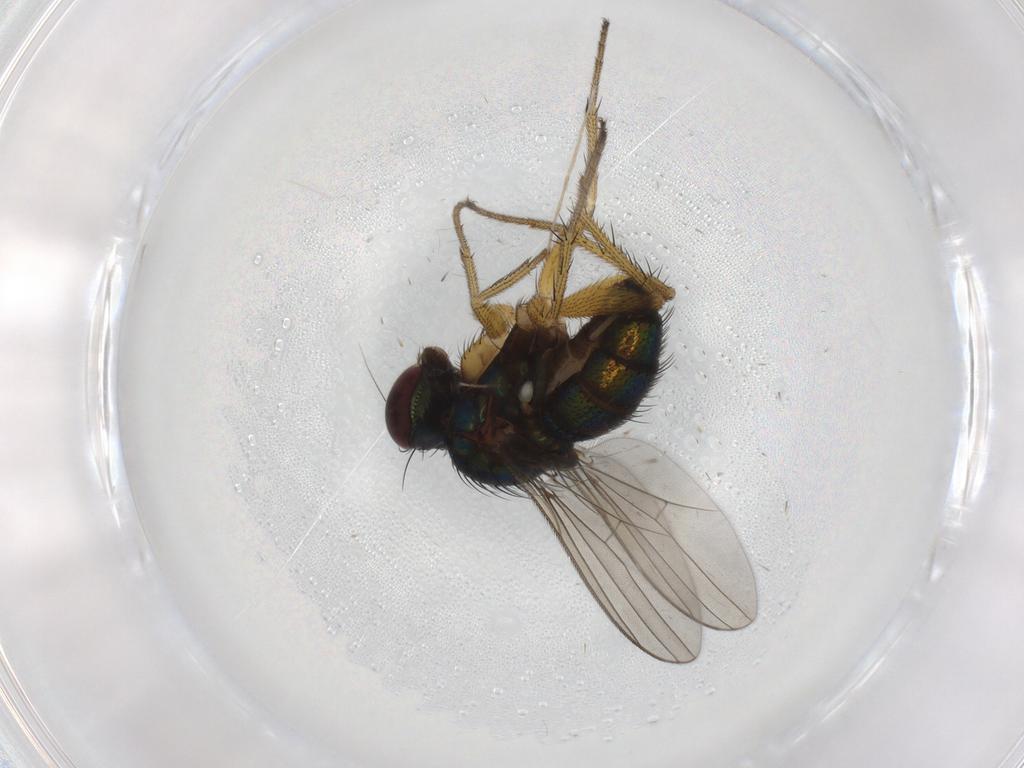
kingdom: Animalia
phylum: Arthropoda
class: Insecta
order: Diptera
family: Dolichopodidae
